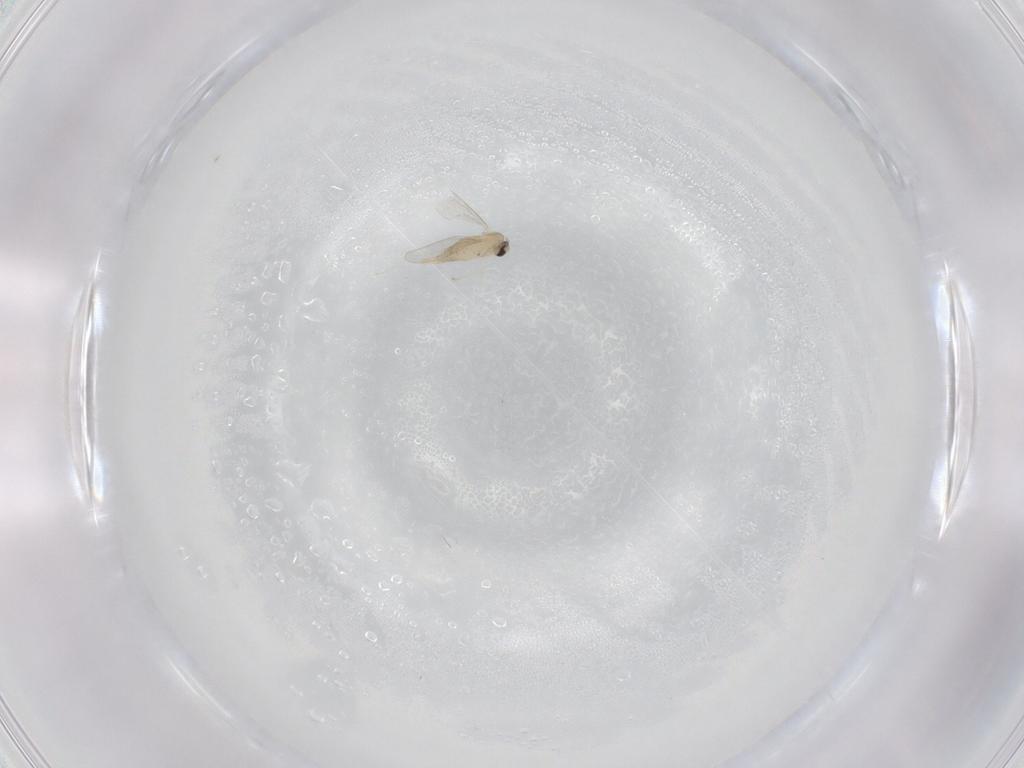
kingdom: Animalia
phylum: Arthropoda
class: Insecta
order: Diptera
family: Cecidomyiidae
